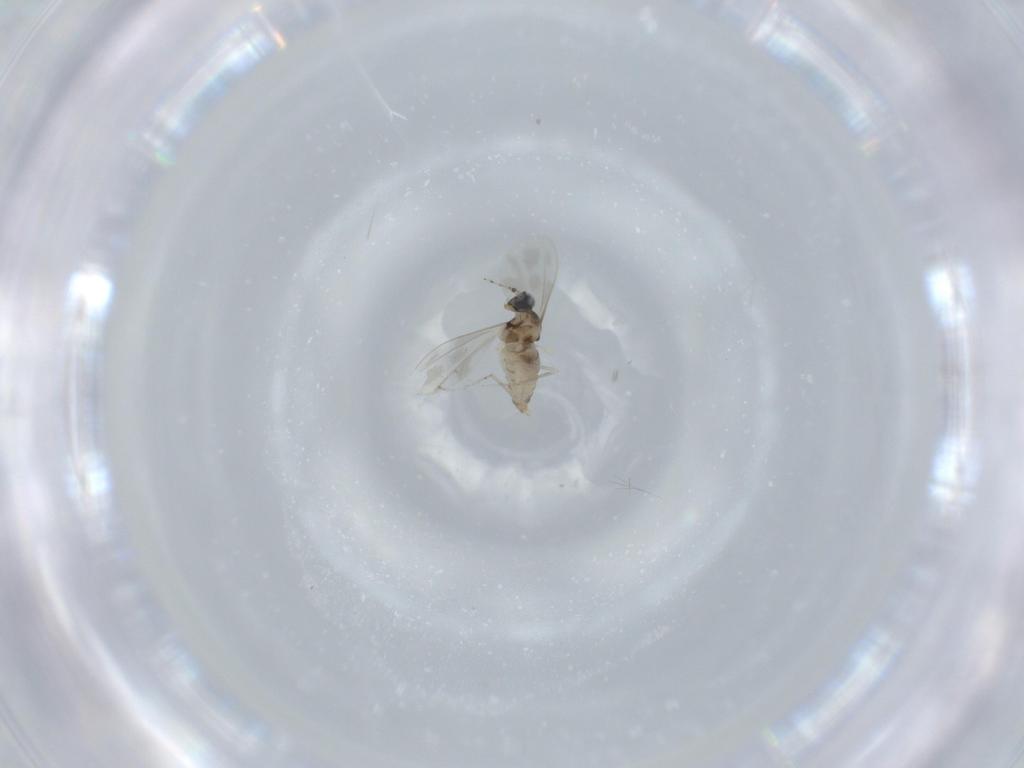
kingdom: Animalia
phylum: Arthropoda
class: Insecta
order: Diptera
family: Cecidomyiidae
